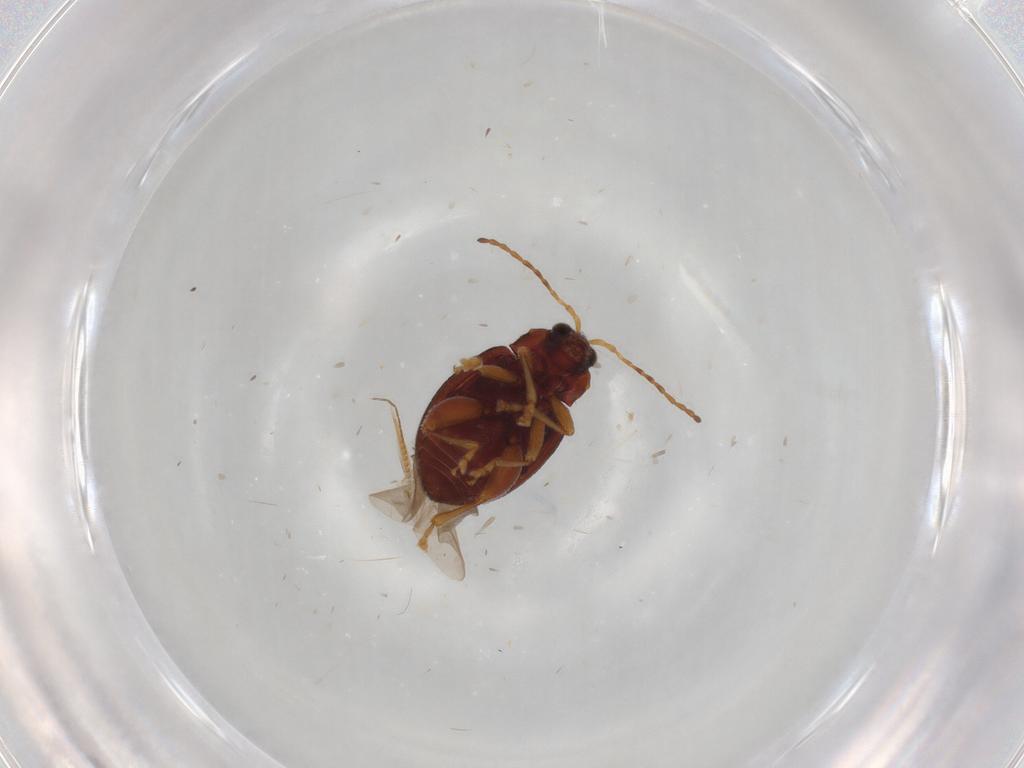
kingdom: Animalia
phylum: Arthropoda
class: Insecta
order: Coleoptera
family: Chrysomelidae
